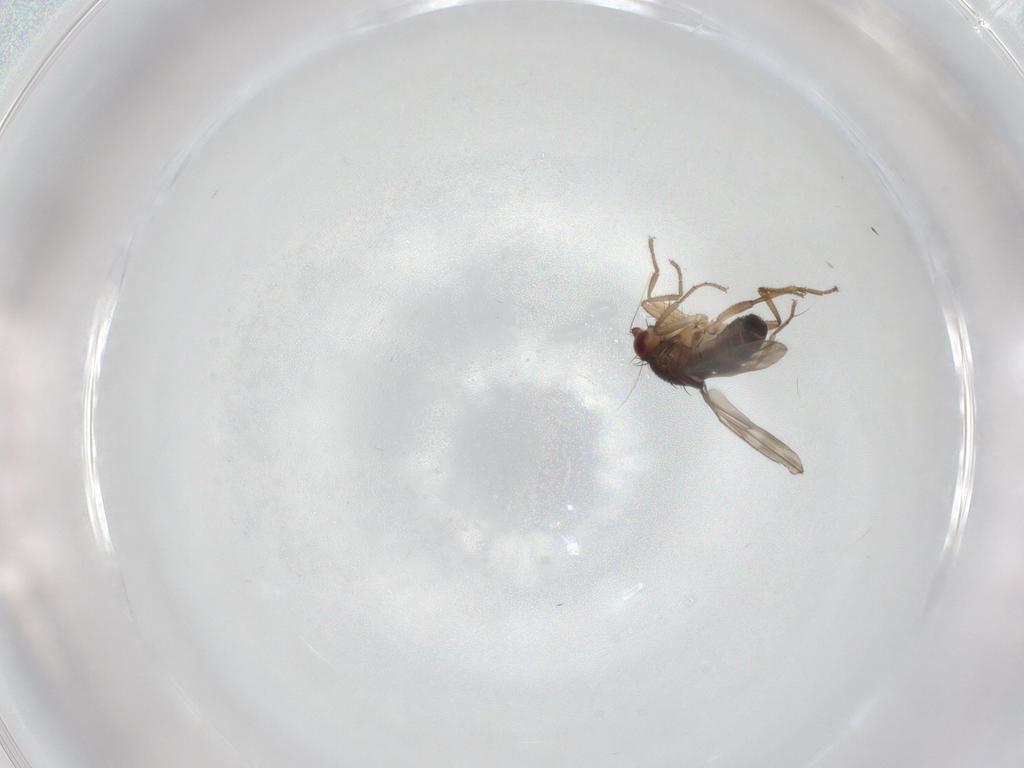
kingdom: Animalia
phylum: Arthropoda
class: Insecta
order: Diptera
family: Sphaeroceridae
